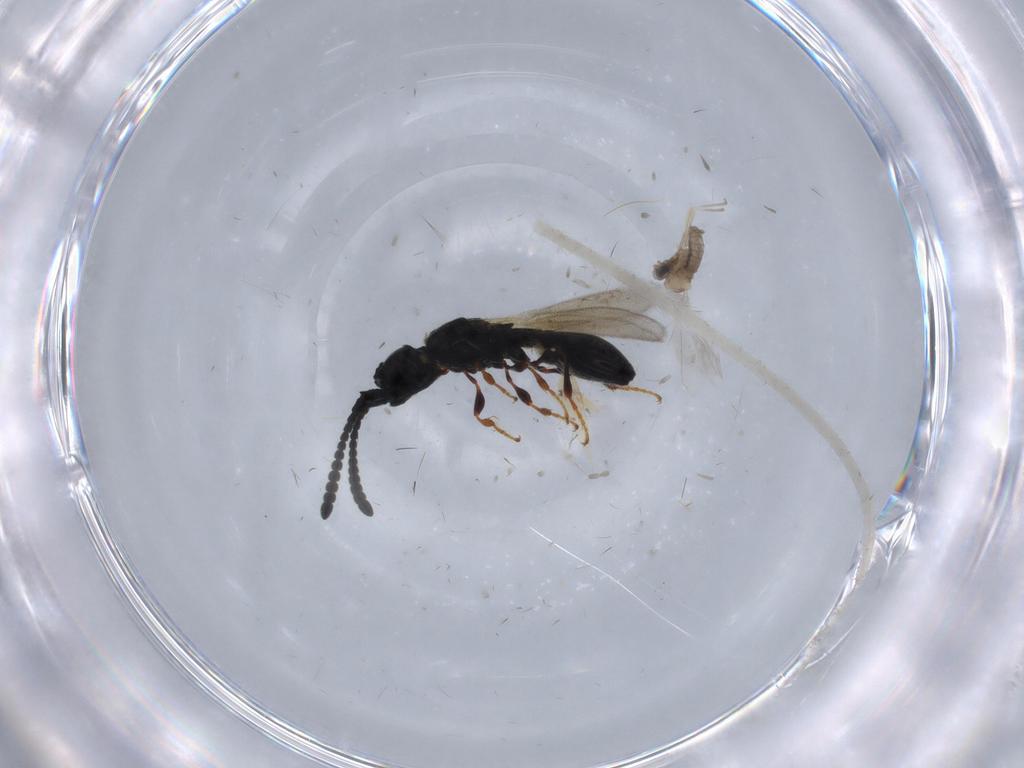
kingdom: Animalia
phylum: Arthropoda
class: Insecta
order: Diptera
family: Limoniidae
